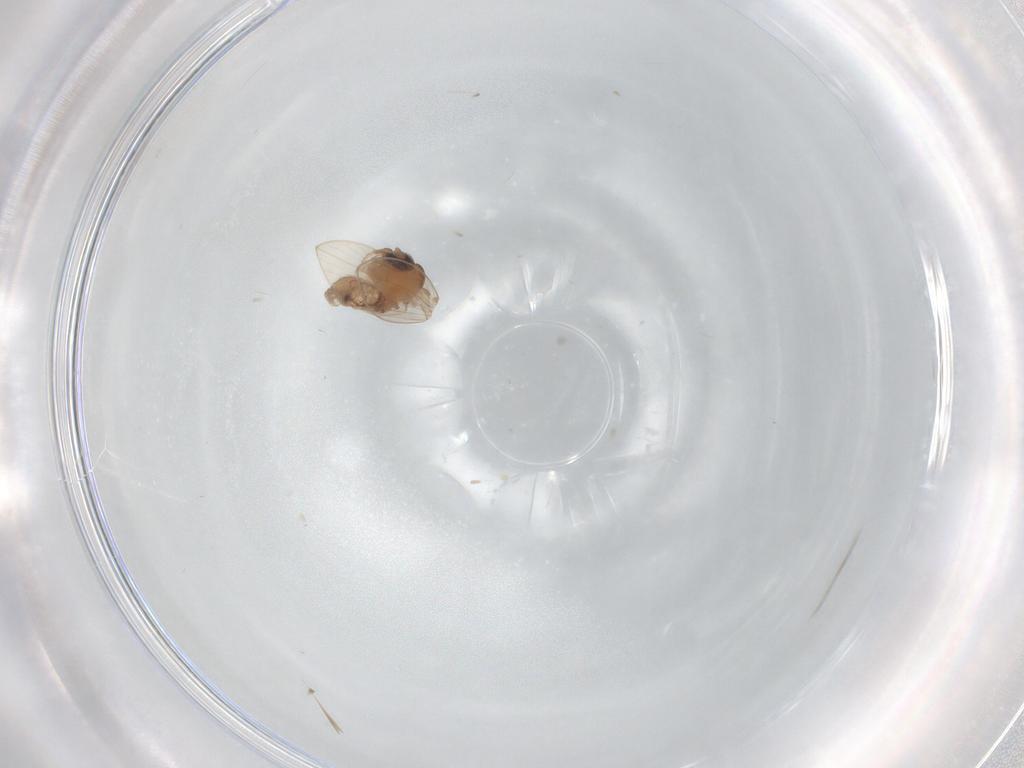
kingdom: Animalia
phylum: Arthropoda
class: Insecta
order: Diptera
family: Psychodidae
